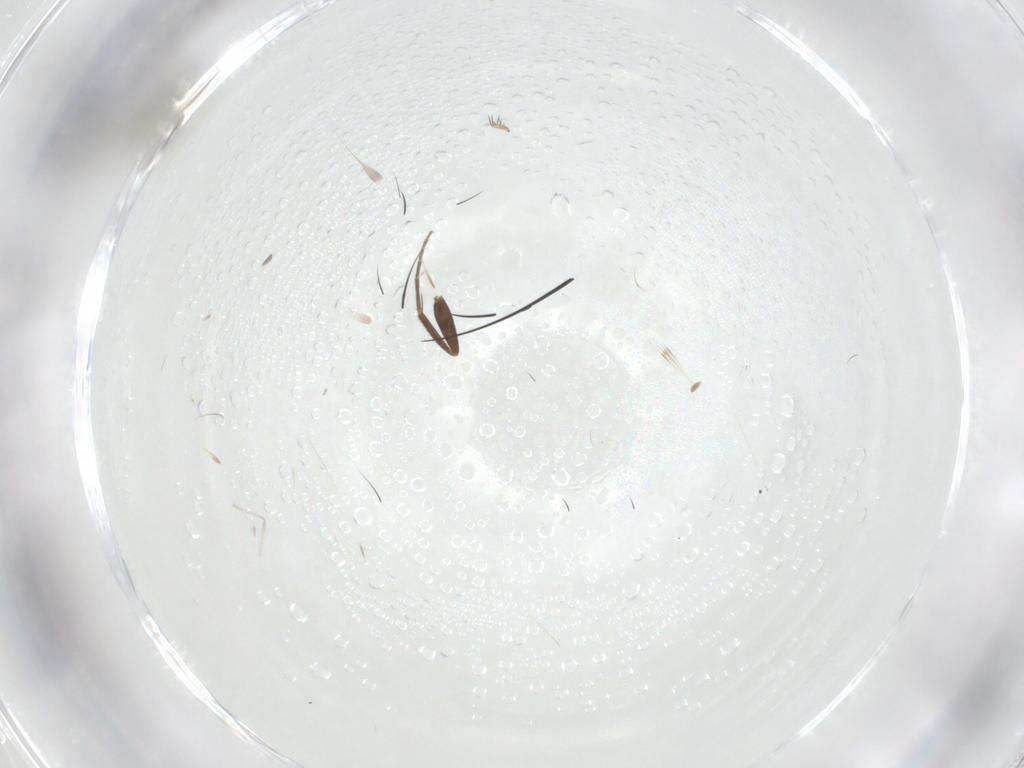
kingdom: Animalia
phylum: Arthropoda
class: Insecta
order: Diptera
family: Phoridae
